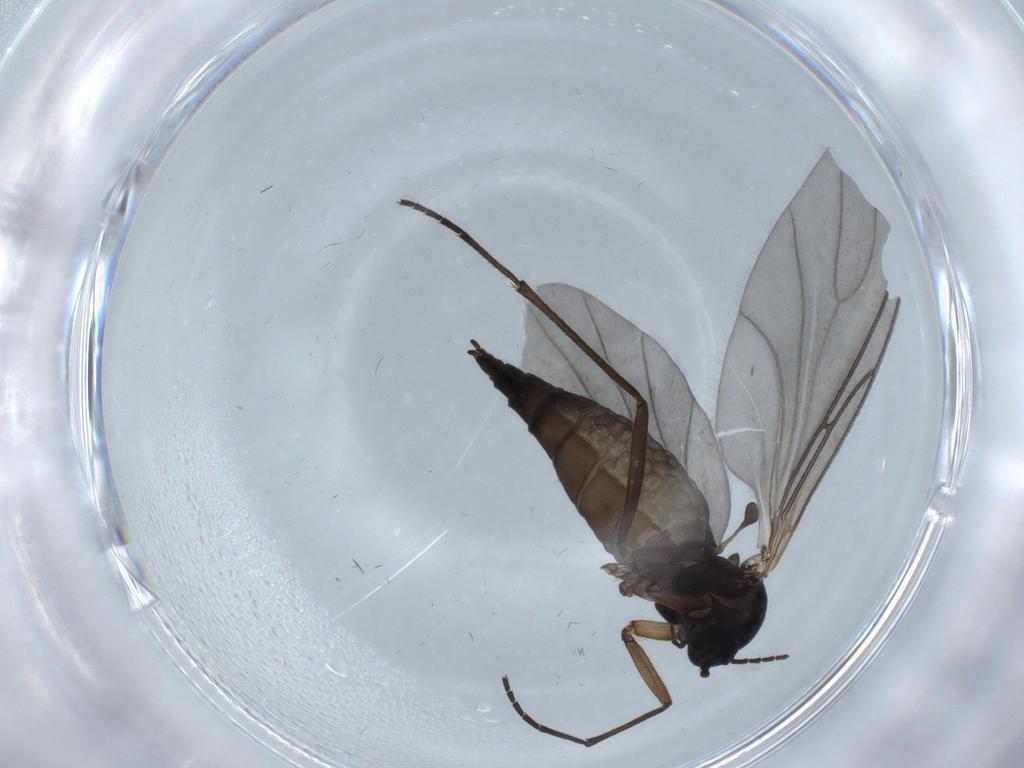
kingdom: Animalia
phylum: Arthropoda
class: Insecta
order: Diptera
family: Sciaridae
